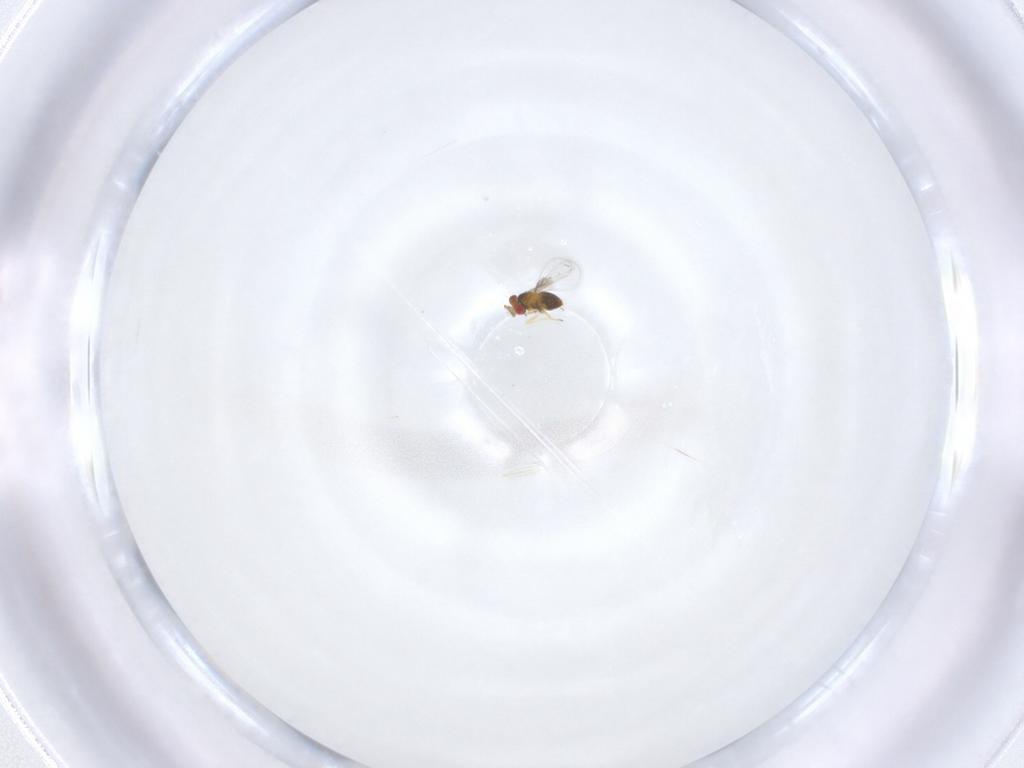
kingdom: Animalia
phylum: Arthropoda
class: Insecta
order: Hymenoptera
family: Trichogrammatidae
